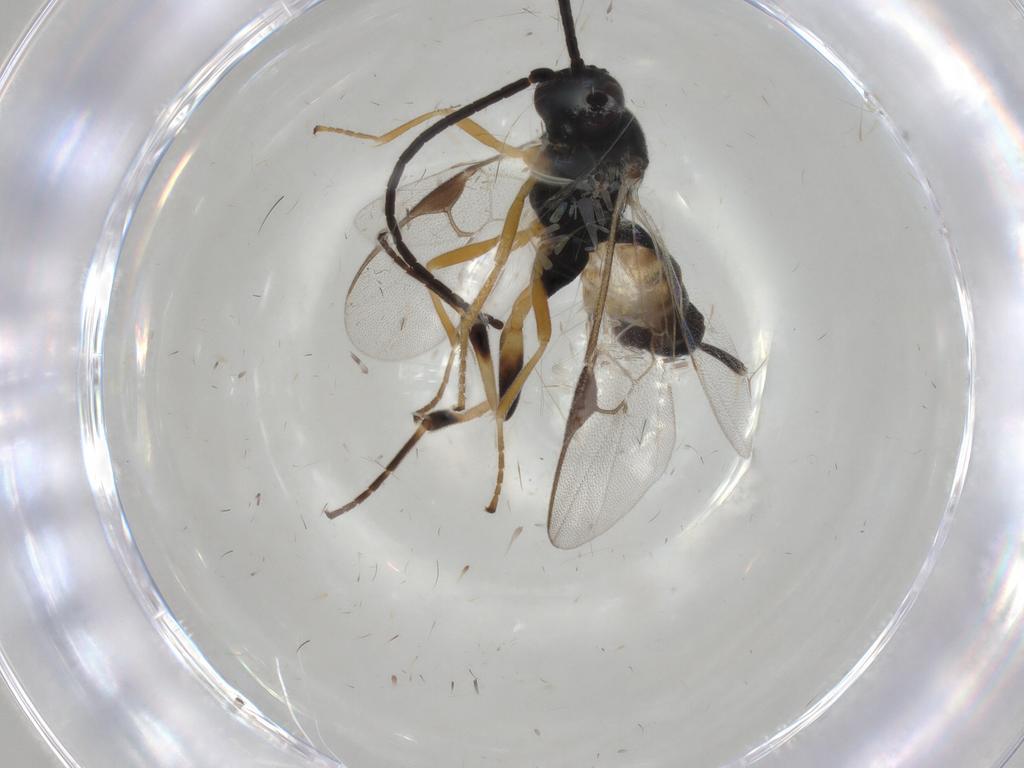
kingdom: Animalia
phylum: Arthropoda
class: Insecta
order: Hymenoptera
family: Braconidae
